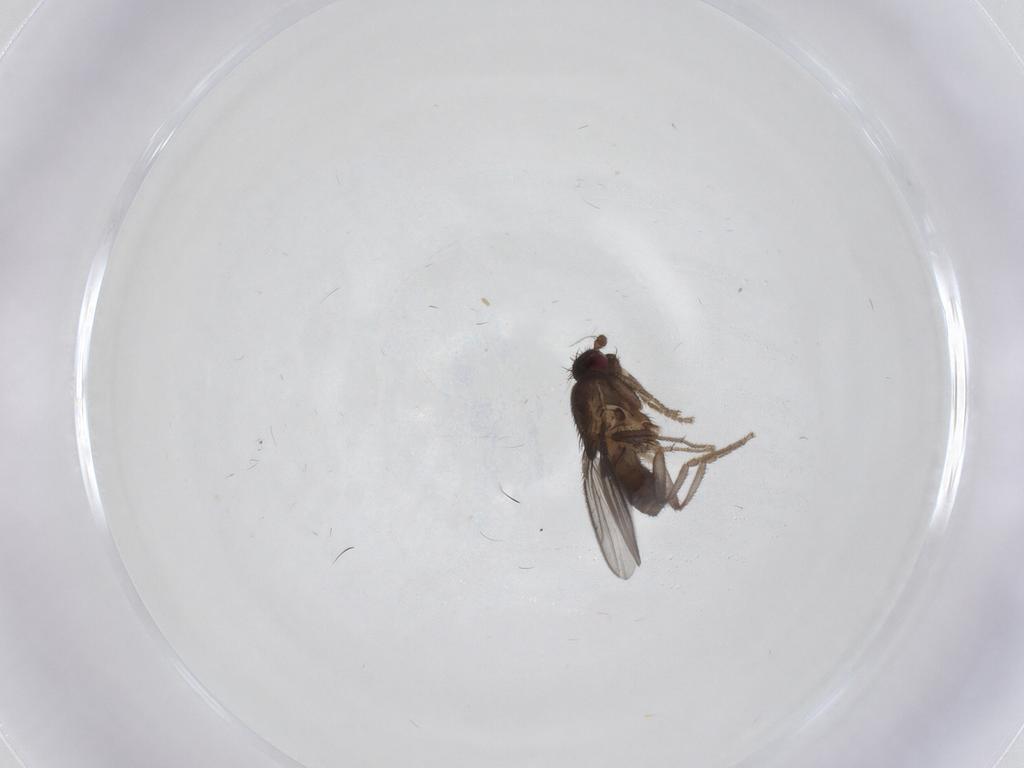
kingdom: Animalia
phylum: Arthropoda
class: Insecta
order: Diptera
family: Sphaeroceridae
